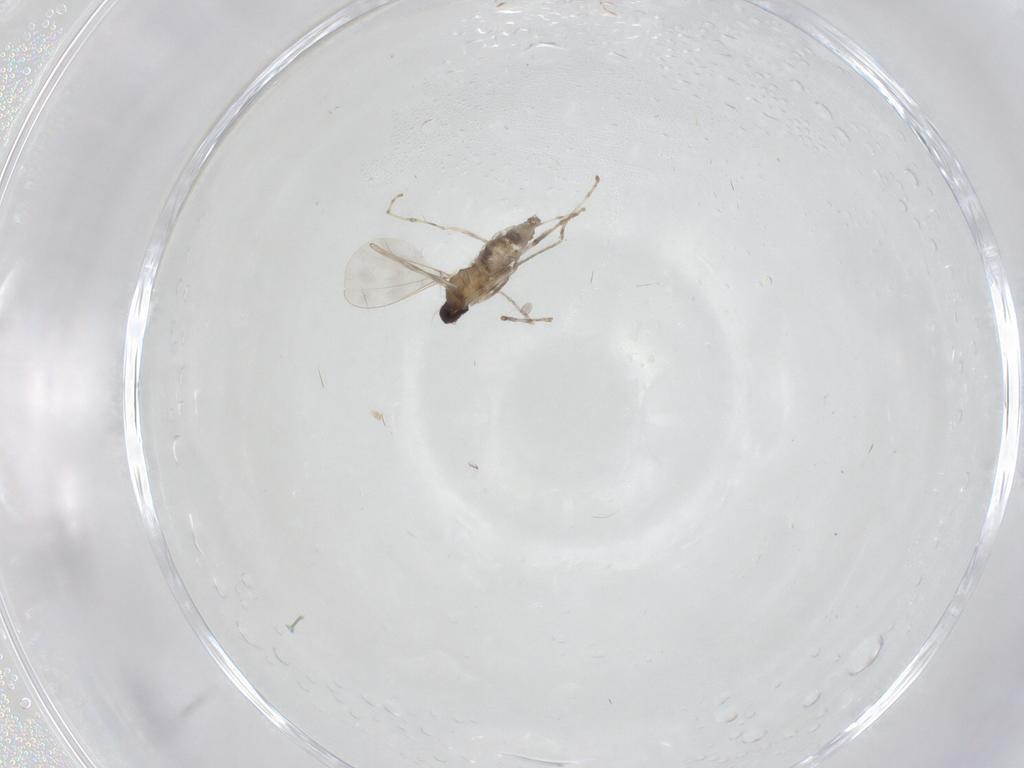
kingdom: Animalia
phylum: Arthropoda
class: Insecta
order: Diptera
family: Cecidomyiidae
